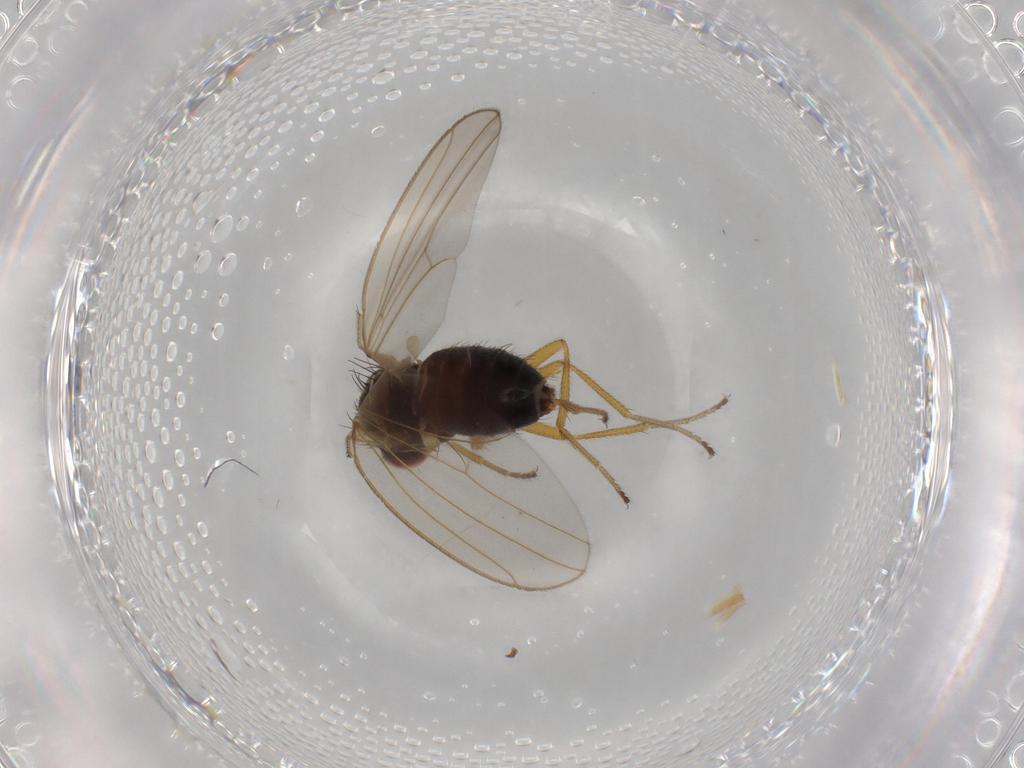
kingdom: Animalia
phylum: Arthropoda
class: Insecta
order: Diptera
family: Drosophilidae
